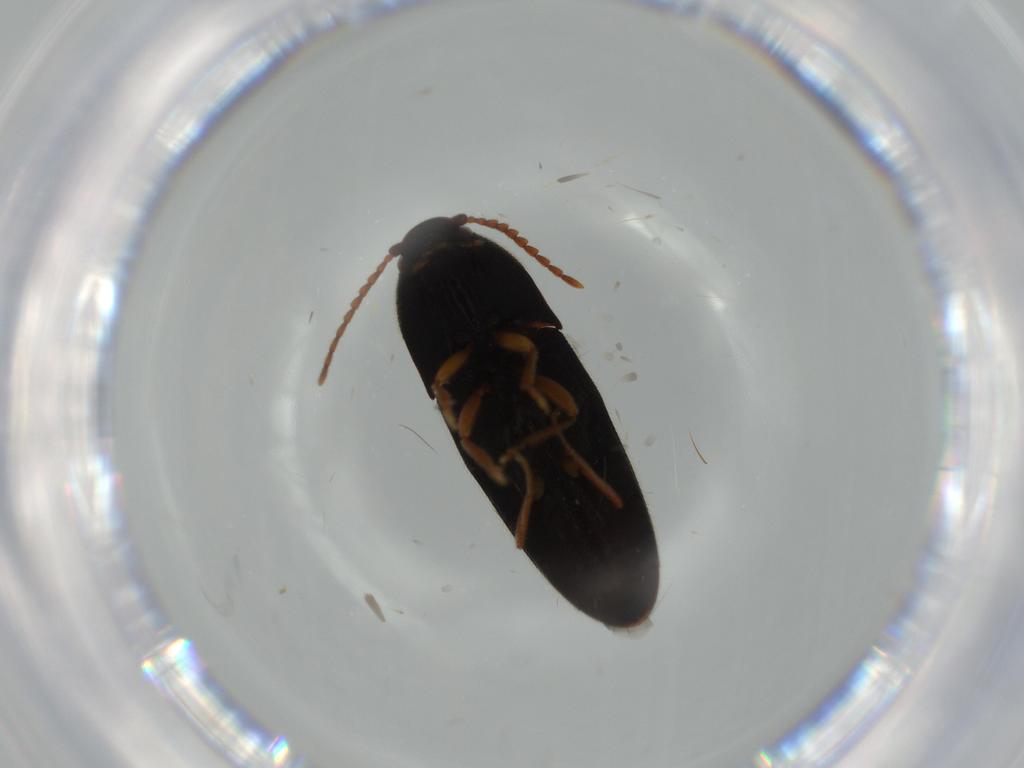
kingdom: Animalia
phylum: Arthropoda
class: Insecta
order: Coleoptera
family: Elateridae
